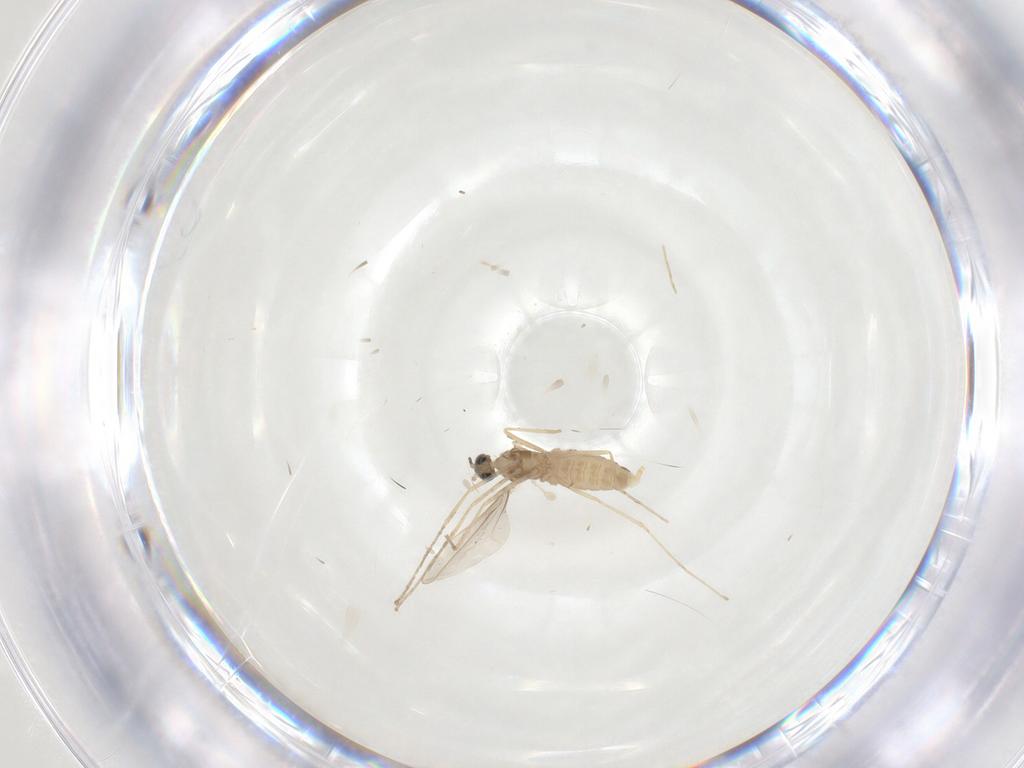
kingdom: Animalia
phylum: Arthropoda
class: Insecta
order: Diptera
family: Cecidomyiidae
